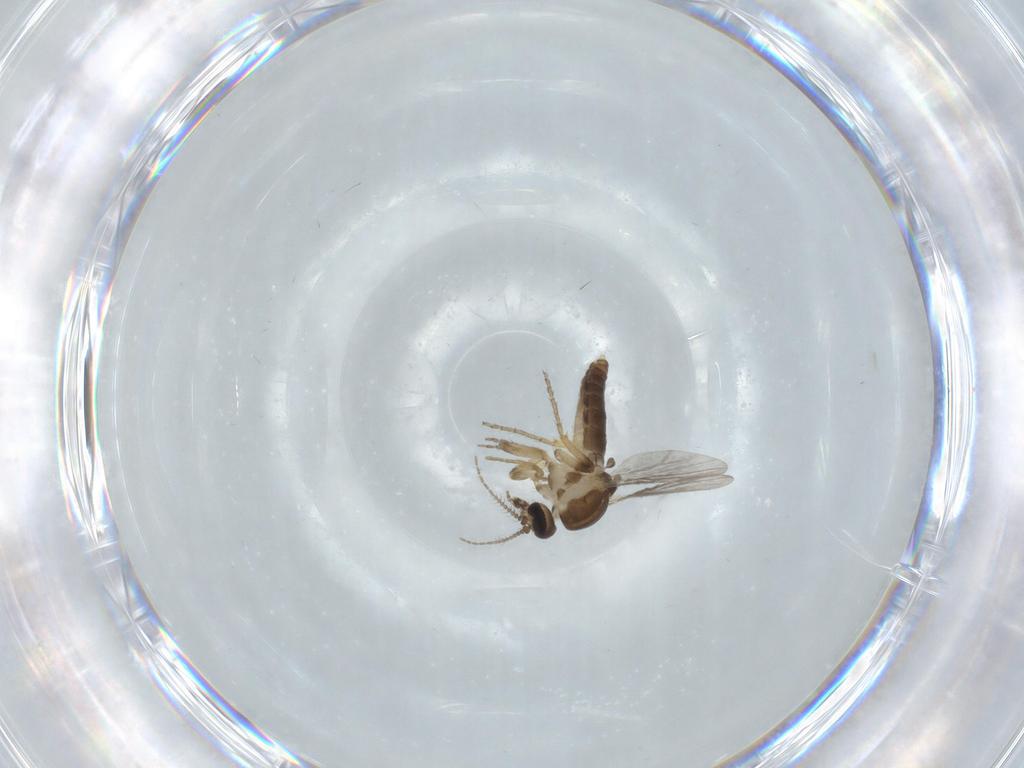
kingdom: Animalia
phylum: Arthropoda
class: Insecta
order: Diptera
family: Ceratopogonidae
